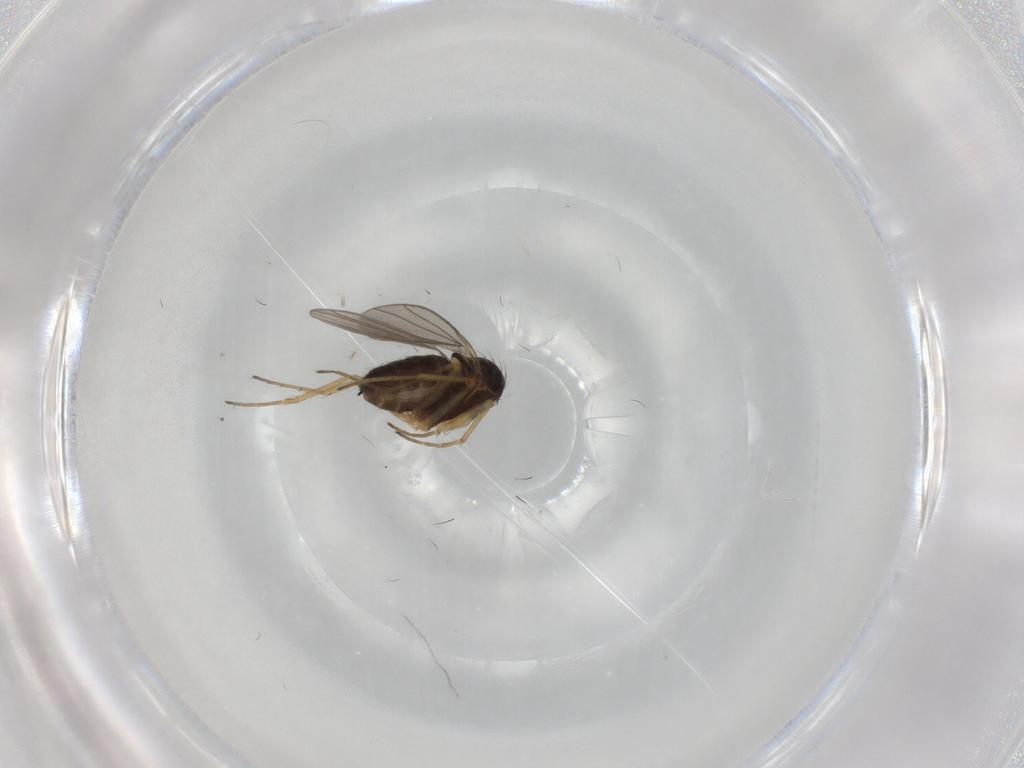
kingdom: Animalia
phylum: Arthropoda
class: Insecta
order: Diptera
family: Dolichopodidae
